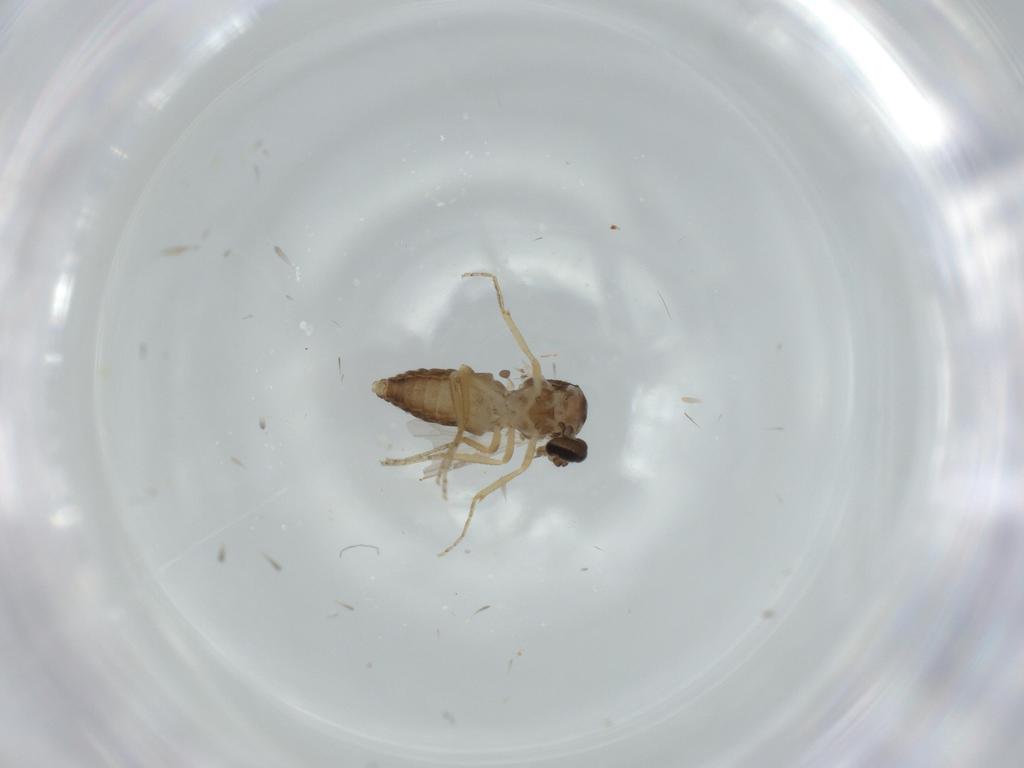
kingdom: Animalia
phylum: Arthropoda
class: Insecta
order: Diptera
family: Ceratopogonidae
